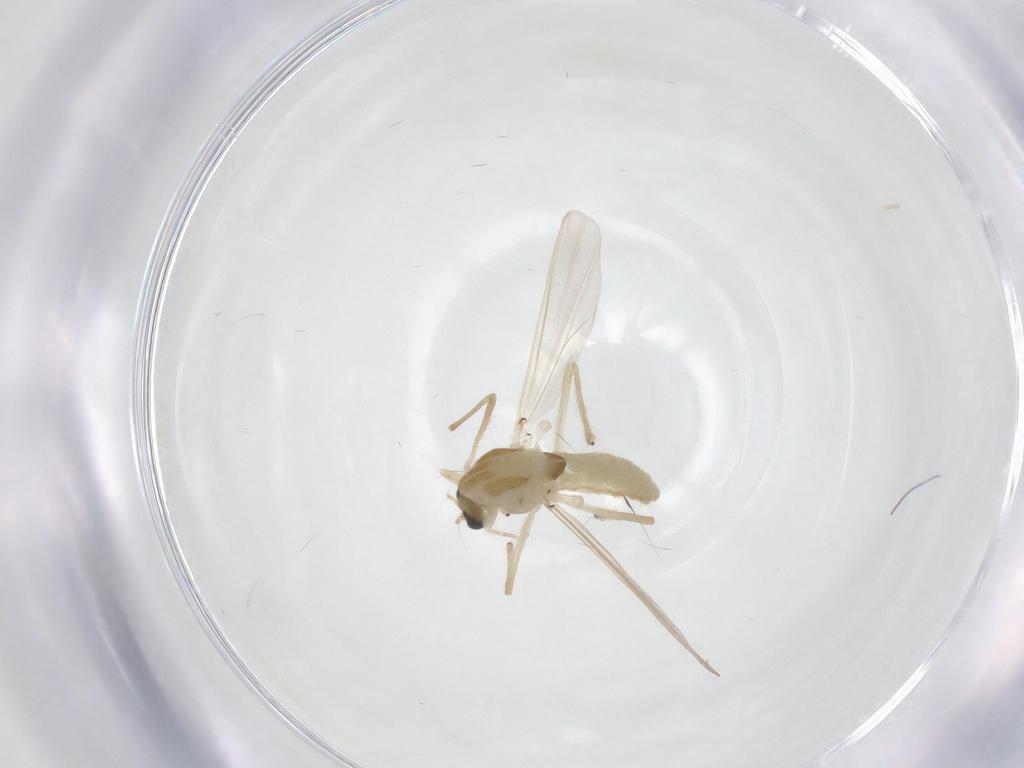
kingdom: Animalia
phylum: Arthropoda
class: Insecta
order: Diptera
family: Chironomidae
